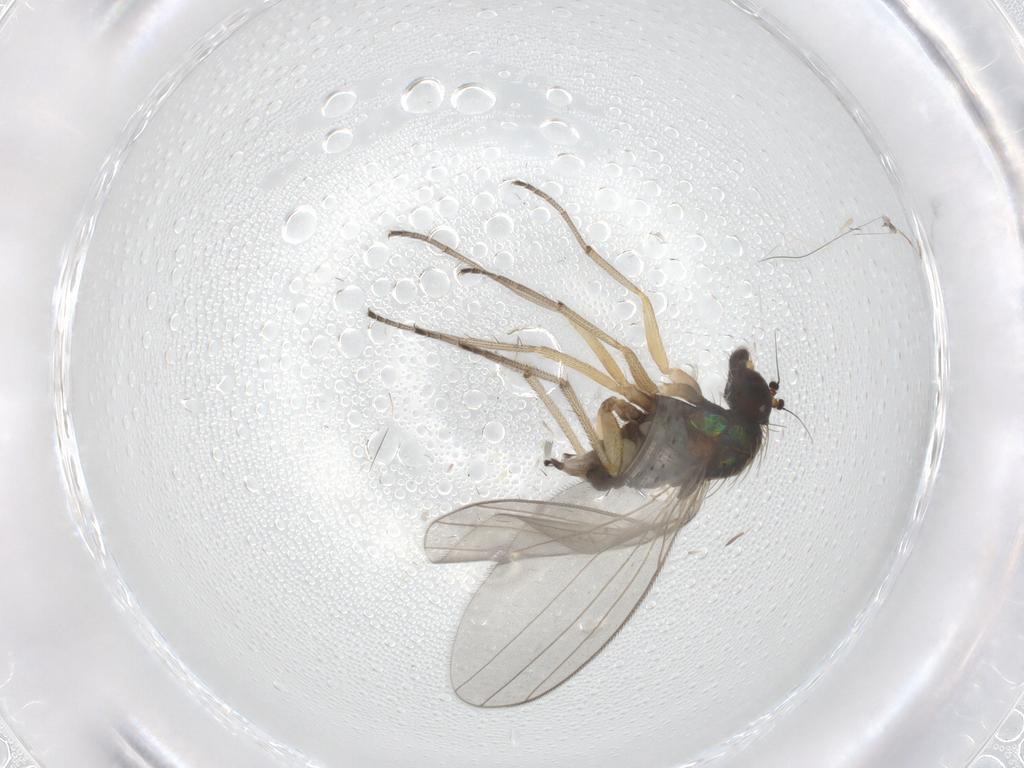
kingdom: Animalia
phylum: Arthropoda
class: Insecta
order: Diptera
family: Dolichopodidae
